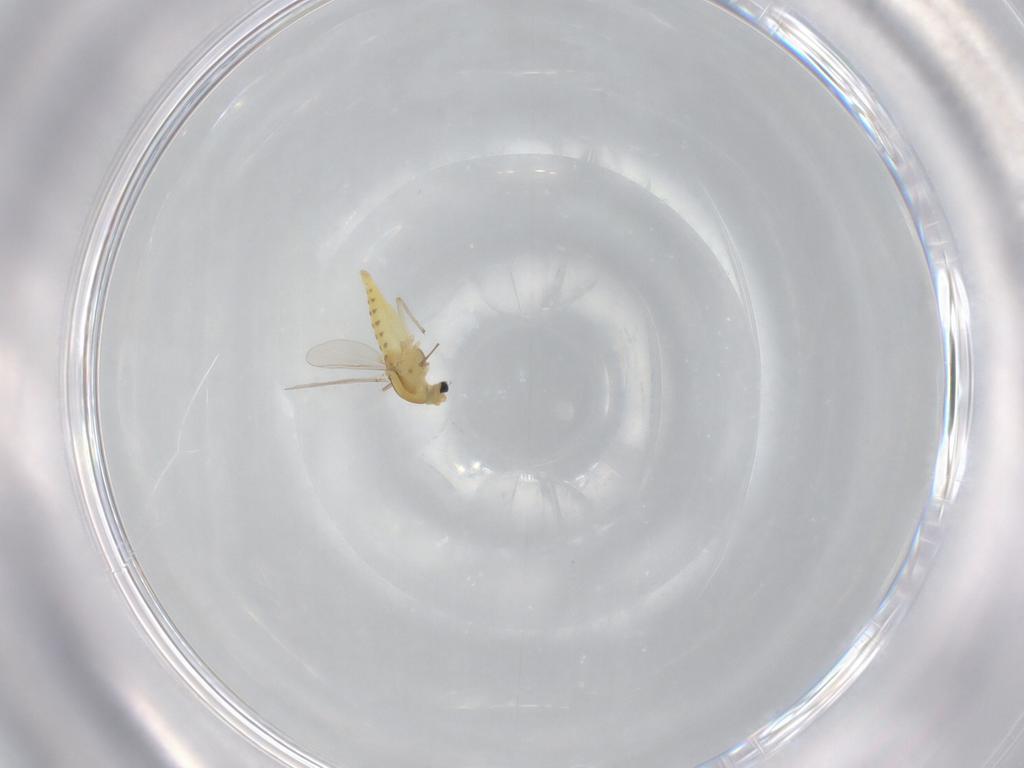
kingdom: Animalia
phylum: Arthropoda
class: Insecta
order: Diptera
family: Chironomidae
